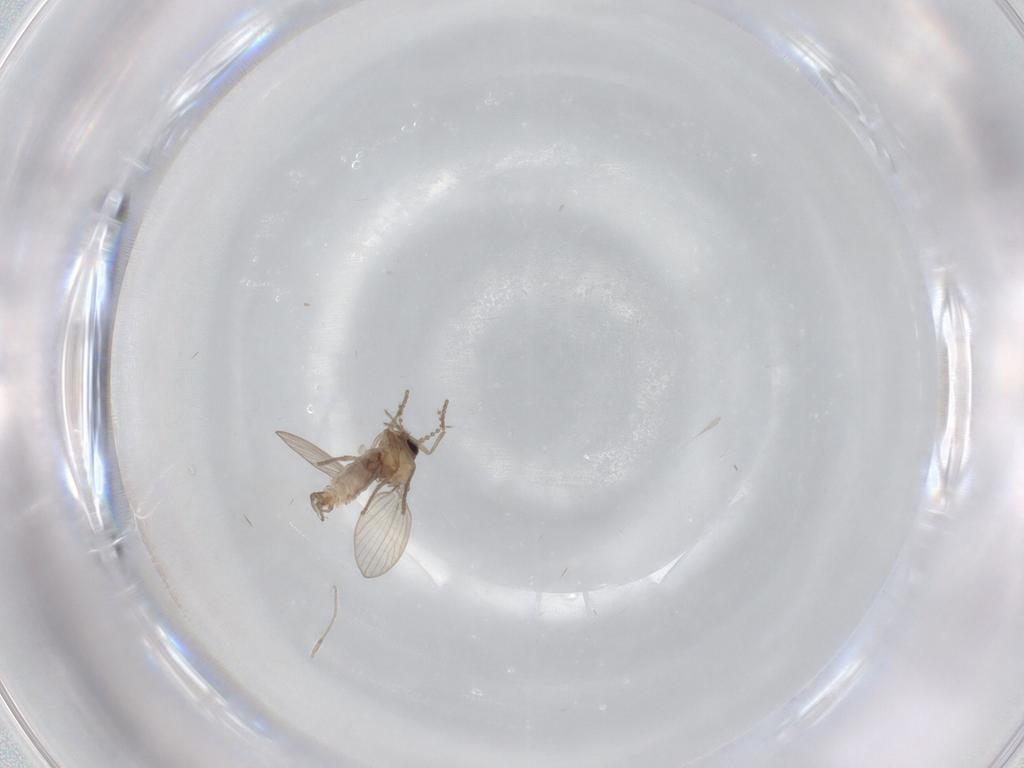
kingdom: Animalia
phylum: Arthropoda
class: Insecta
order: Diptera
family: Psychodidae
